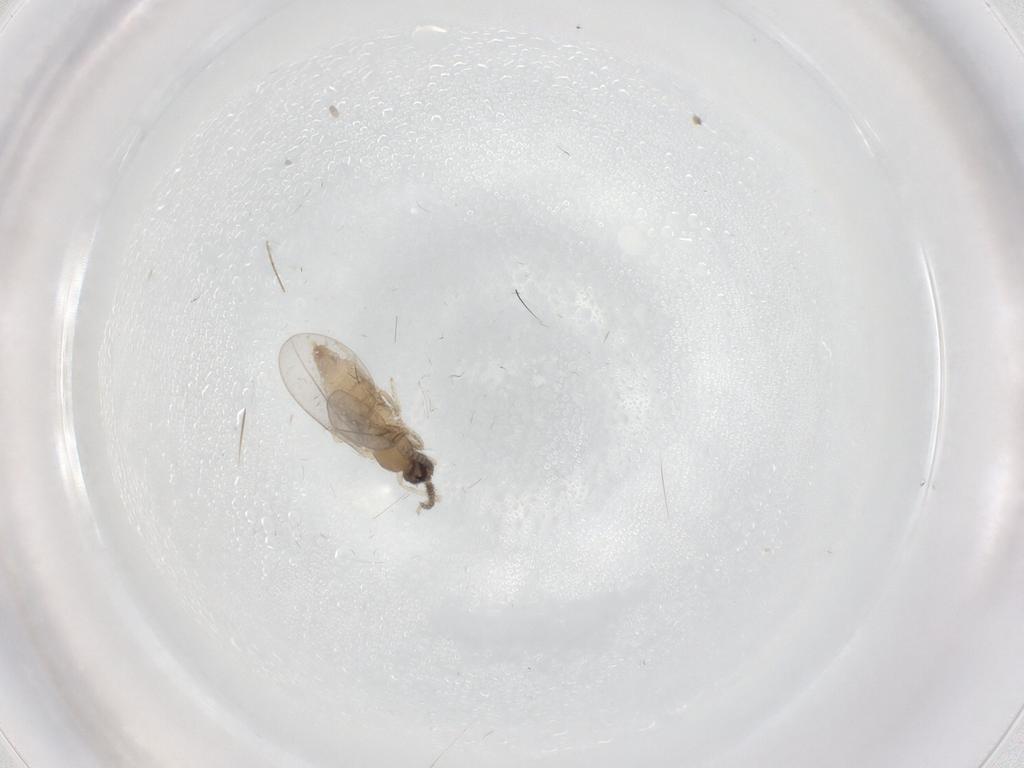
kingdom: Animalia
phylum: Arthropoda
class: Insecta
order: Diptera
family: Cecidomyiidae
